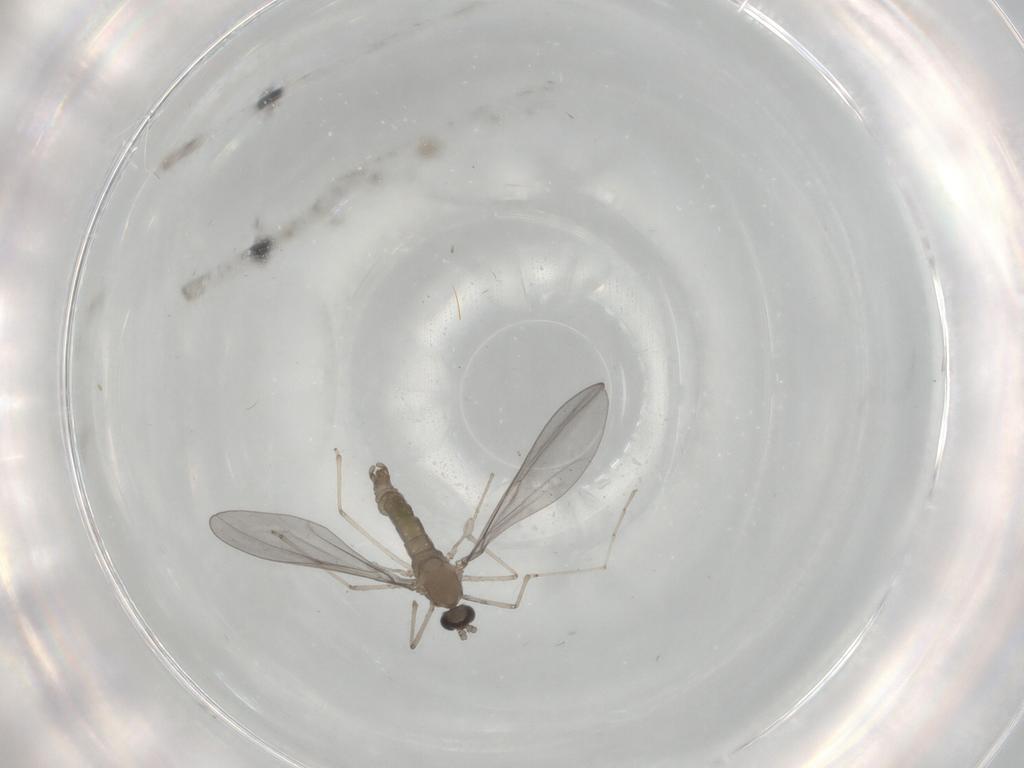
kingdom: Animalia
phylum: Arthropoda
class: Insecta
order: Diptera
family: Cecidomyiidae
